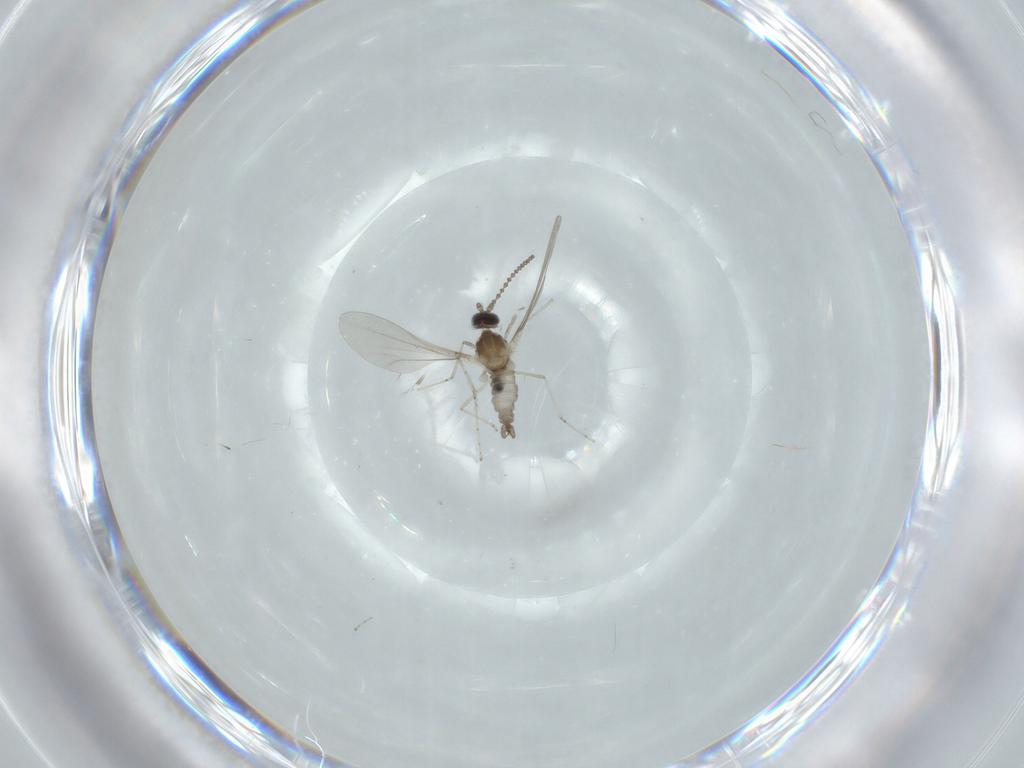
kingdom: Animalia
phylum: Arthropoda
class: Insecta
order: Diptera
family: Cecidomyiidae
